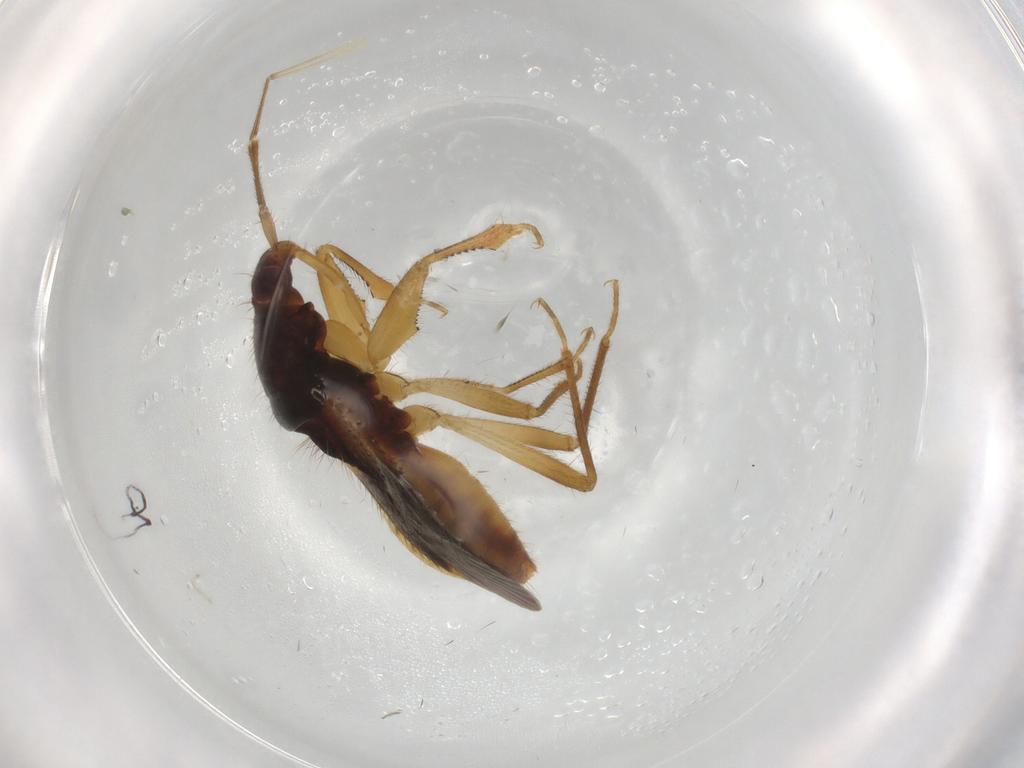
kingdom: Animalia
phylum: Arthropoda
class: Insecta
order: Hemiptera
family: Nabidae
